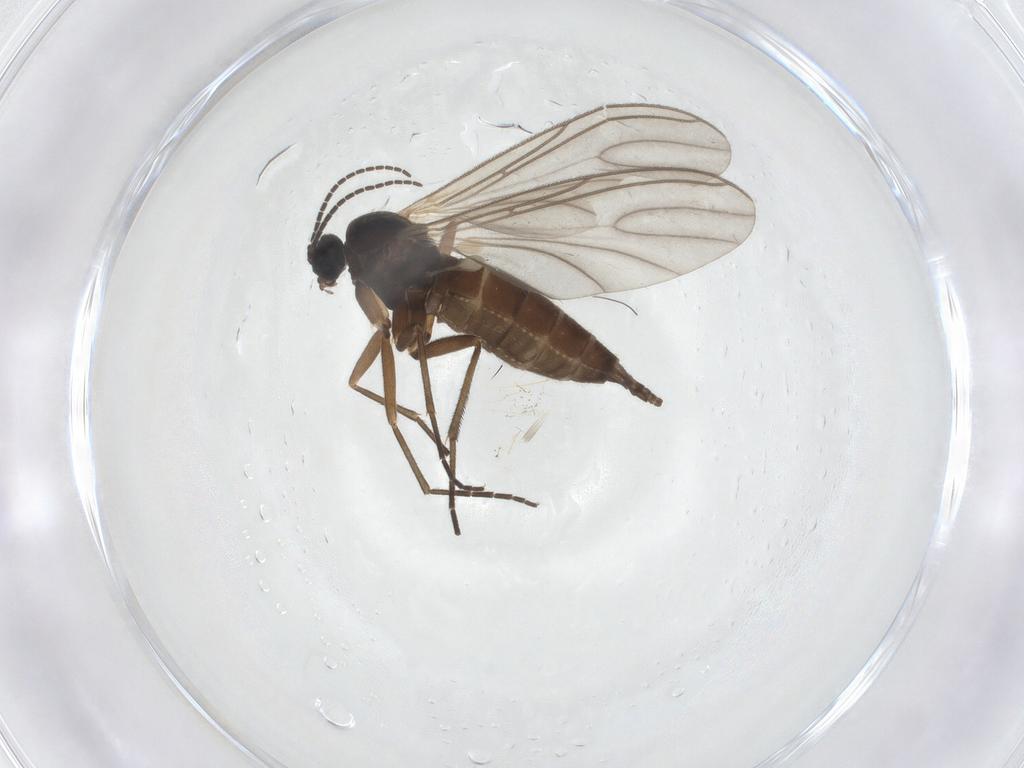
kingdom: Animalia
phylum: Arthropoda
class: Insecta
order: Diptera
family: Sciaridae
